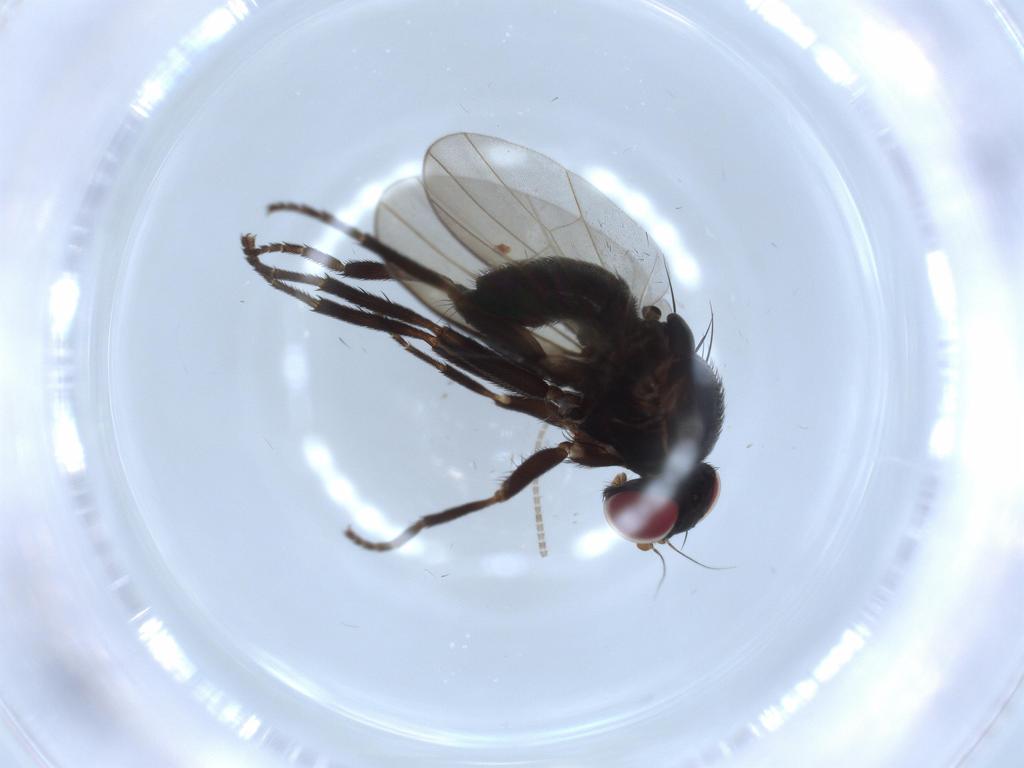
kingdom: Animalia
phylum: Arthropoda
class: Insecta
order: Diptera
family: Agromyzidae
